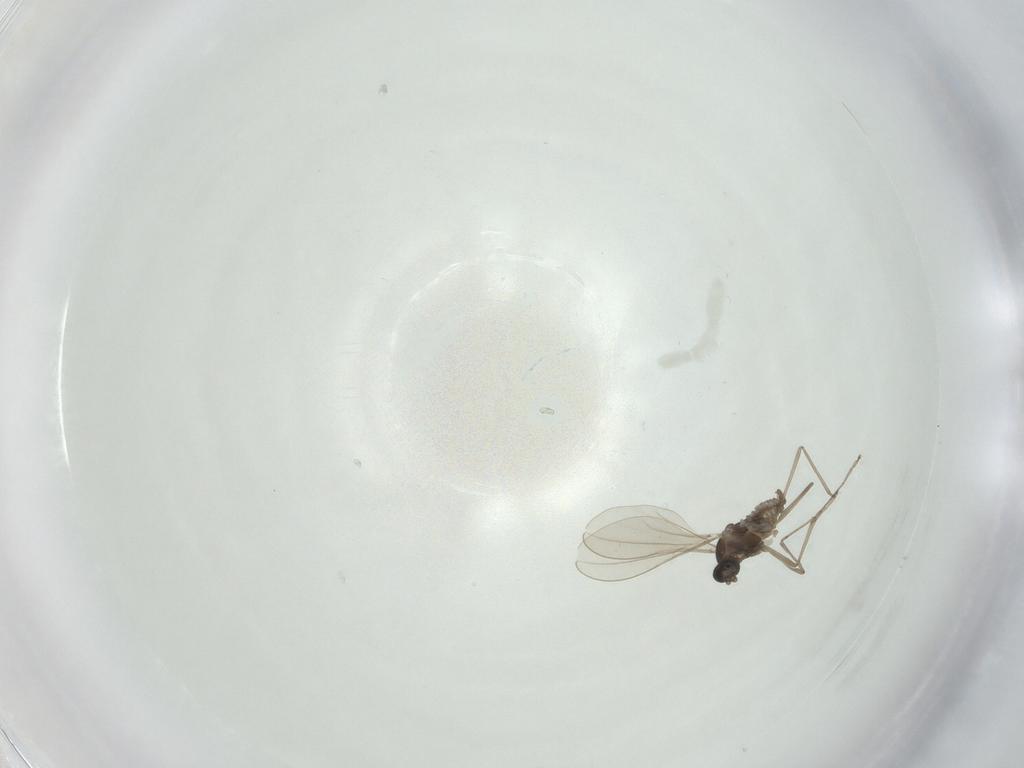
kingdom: Animalia
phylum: Arthropoda
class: Insecta
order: Diptera
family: Cecidomyiidae
